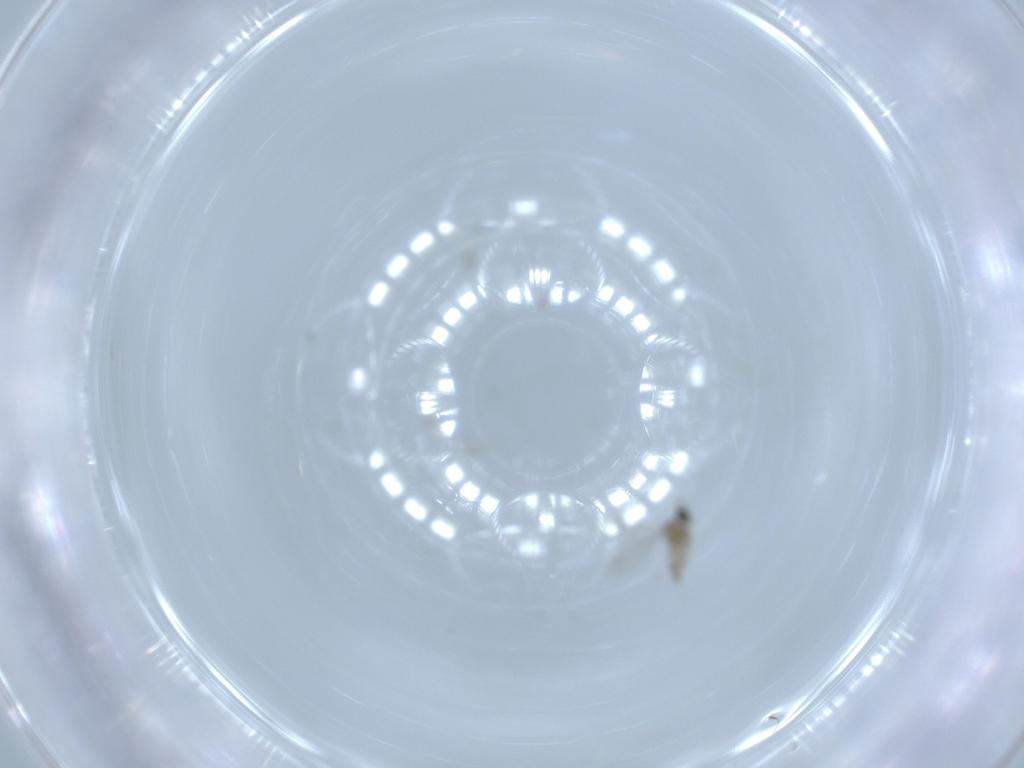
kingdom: Animalia
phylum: Arthropoda
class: Insecta
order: Diptera
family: Cecidomyiidae
